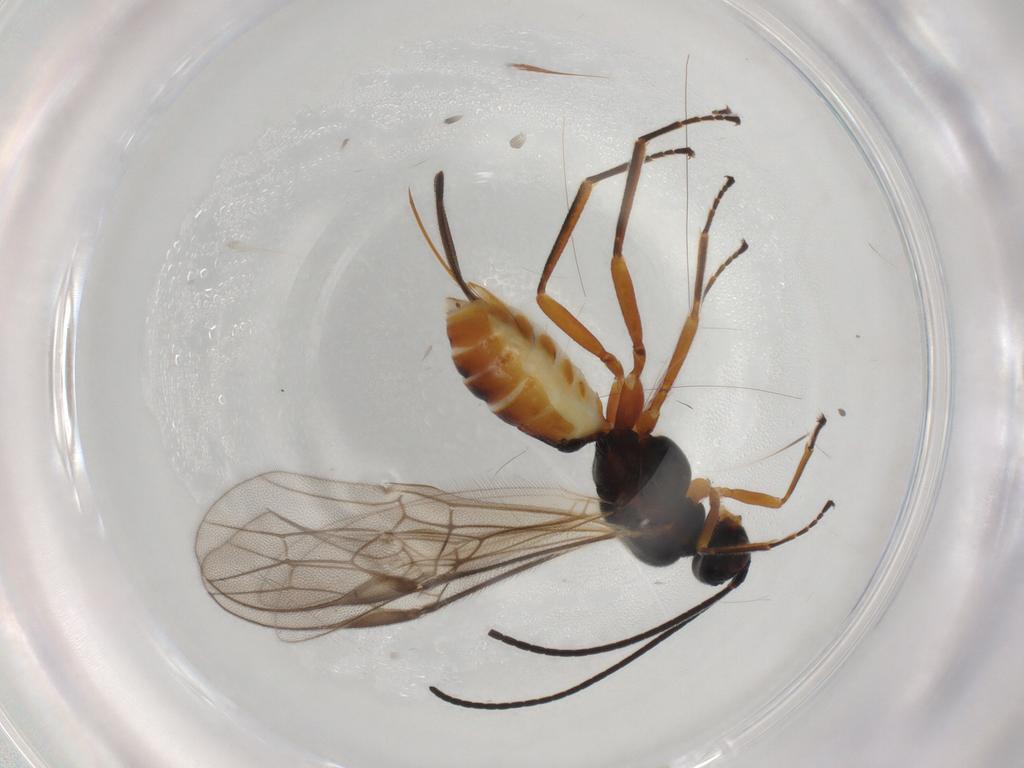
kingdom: Animalia
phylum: Arthropoda
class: Insecta
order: Hymenoptera
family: Braconidae
